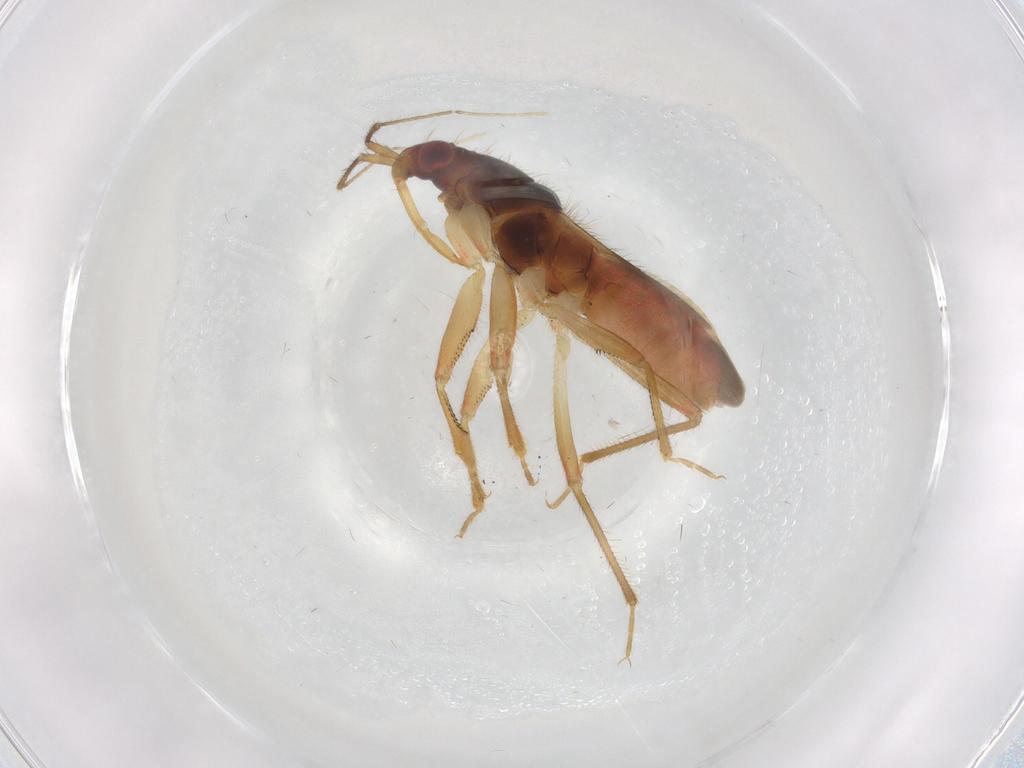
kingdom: Animalia
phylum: Arthropoda
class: Insecta
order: Hemiptera
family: Nabidae
